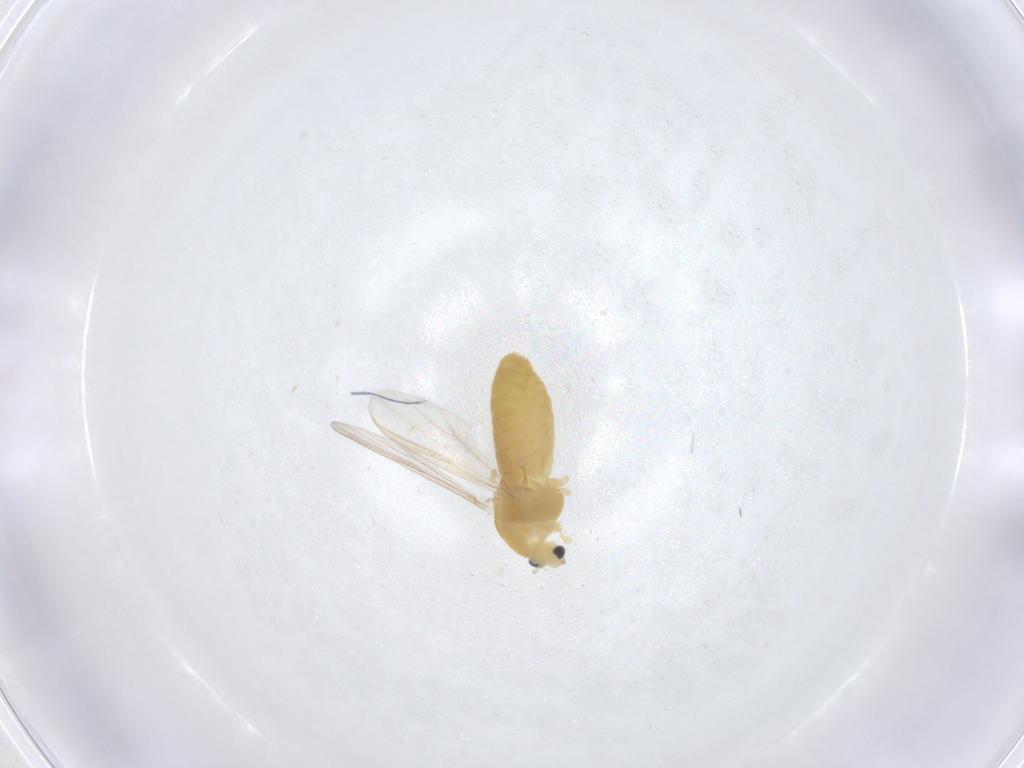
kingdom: Animalia
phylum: Arthropoda
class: Insecta
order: Diptera
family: Chironomidae
